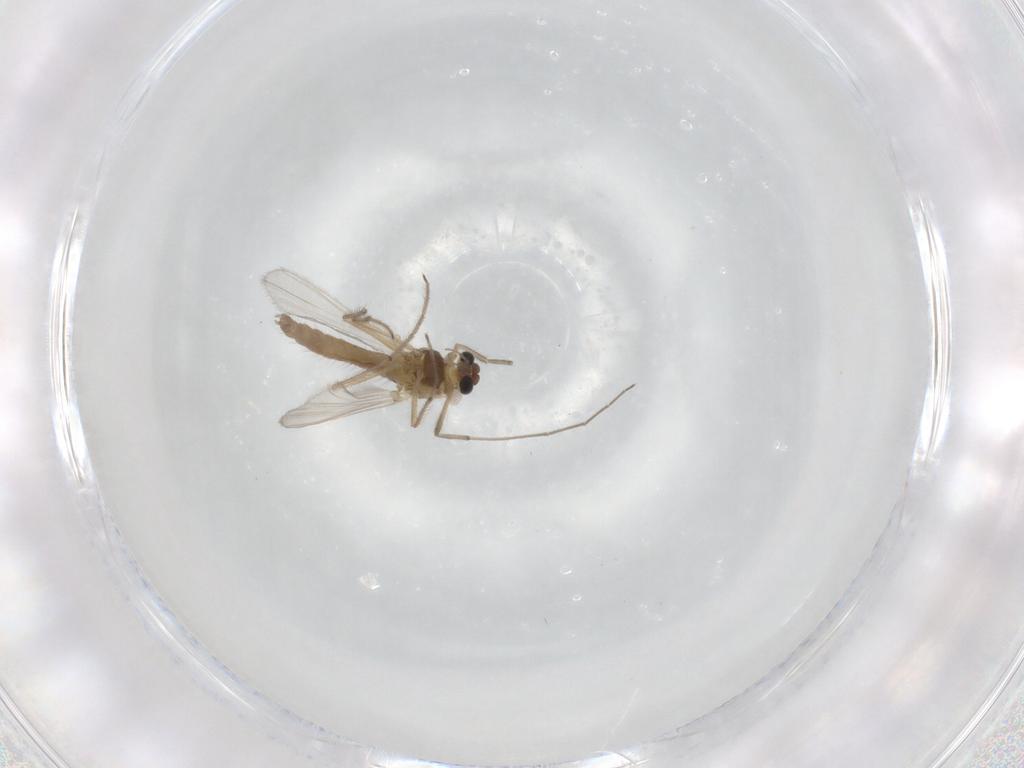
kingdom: Animalia
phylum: Arthropoda
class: Insecta
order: Diptera
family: Chironomidae
